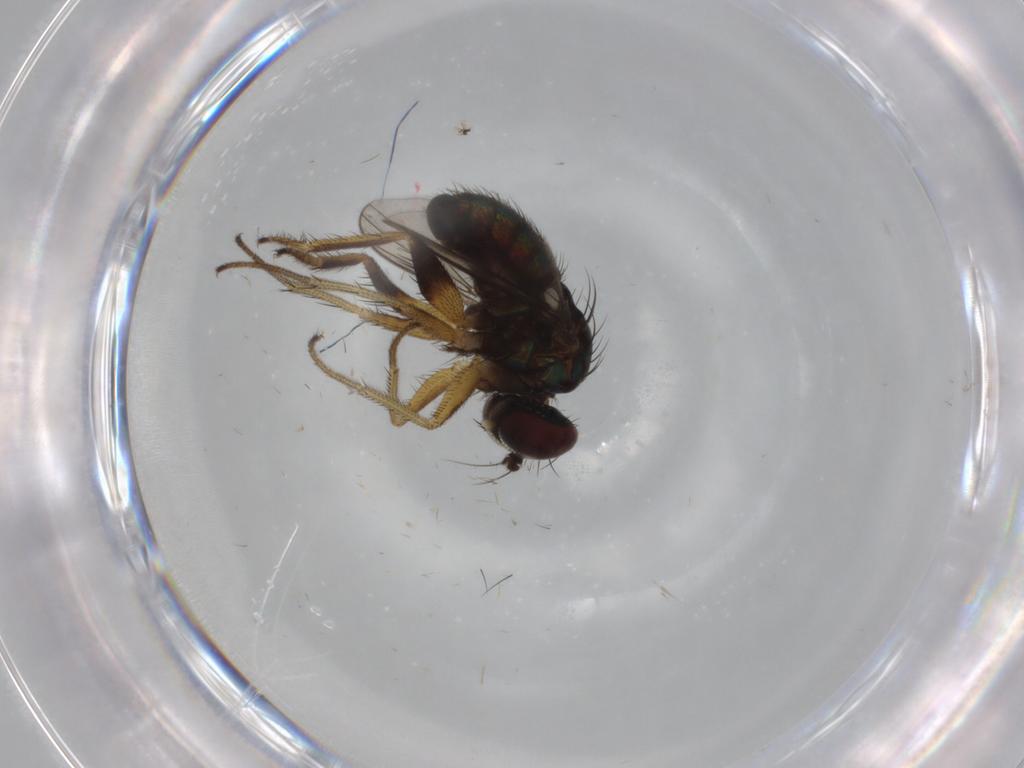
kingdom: Animalia
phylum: Arthropoda
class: Insecta
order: Diptera
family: Dolichopodidae
